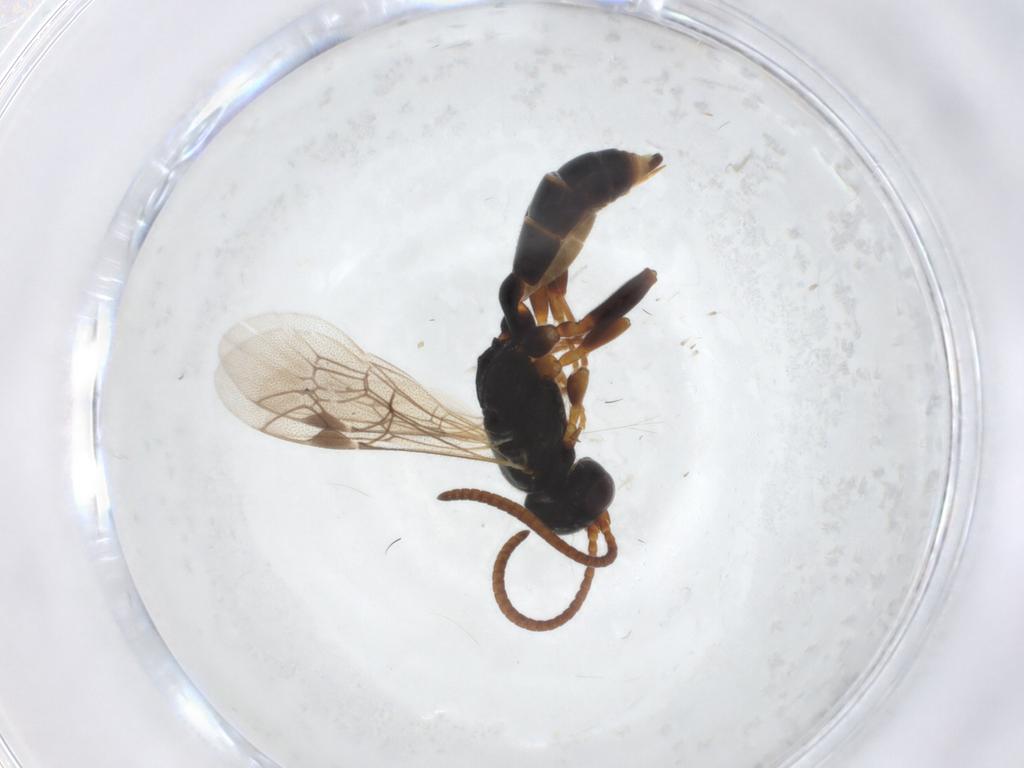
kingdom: Animalia
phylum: Arthropoda
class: Insecta
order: Hymenoptera
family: Ichneumonidae
